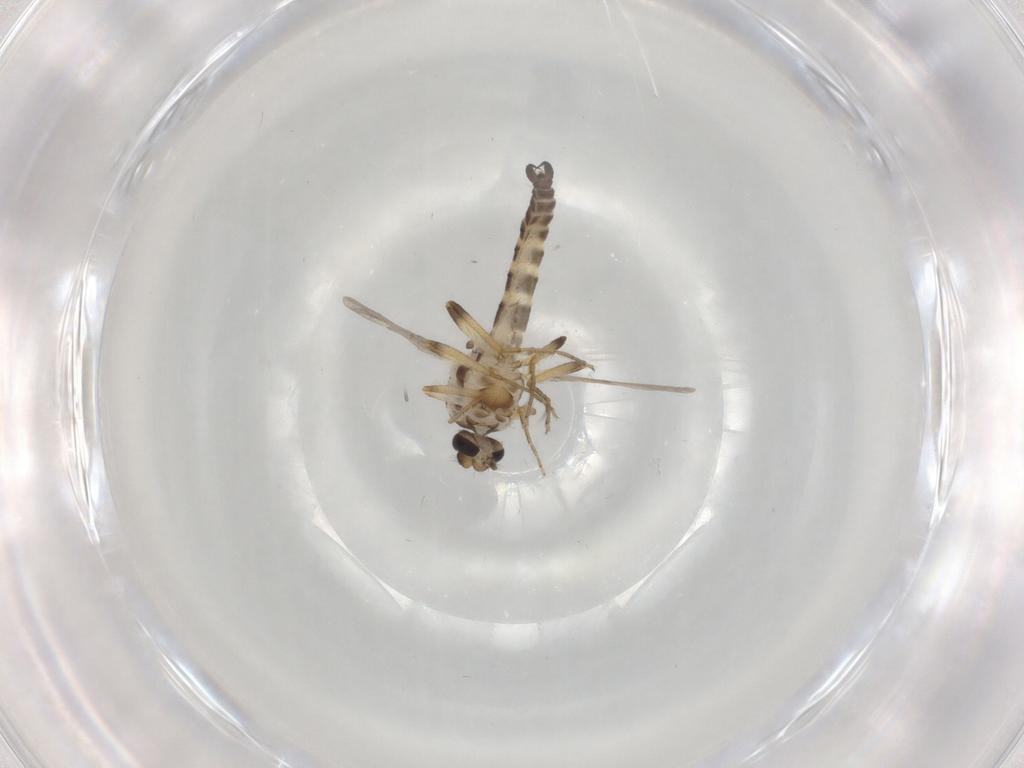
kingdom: Animalia
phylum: Arthropoda
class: Insecta
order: Diptera
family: Ceratopogonidae
